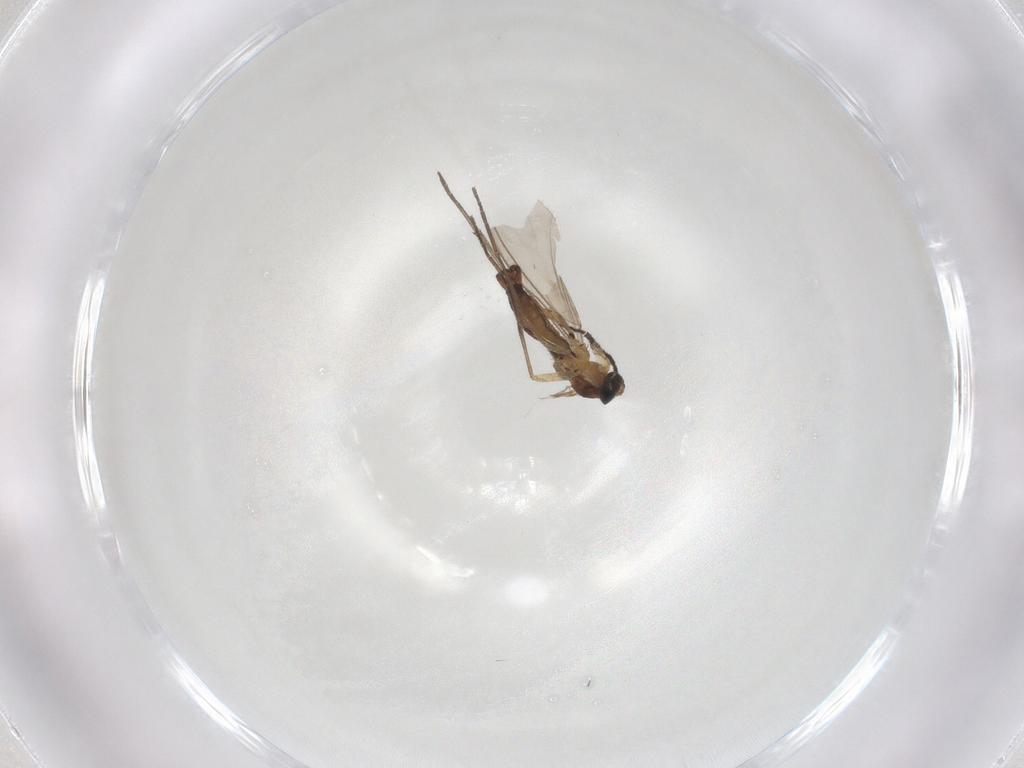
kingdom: Animalia
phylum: Arthropoda
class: Insecta
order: Diptera
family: Sciaridae
